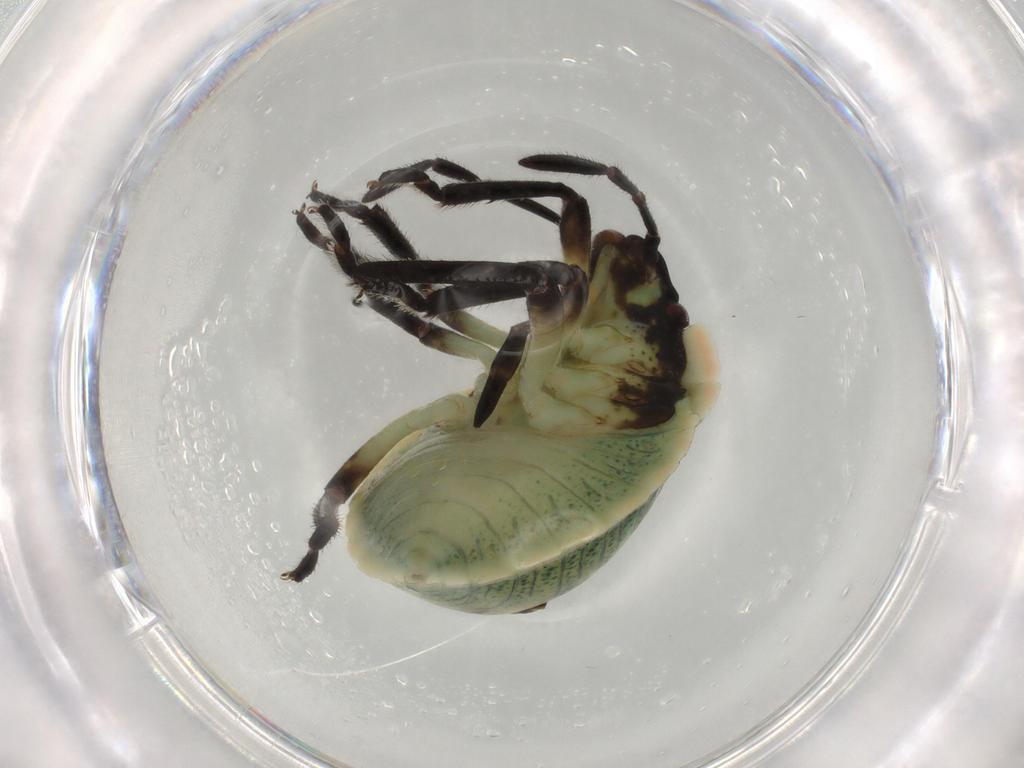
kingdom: Animalia
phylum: Arthropoda
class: Insecta
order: Hemiptera
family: Pentatomidae
